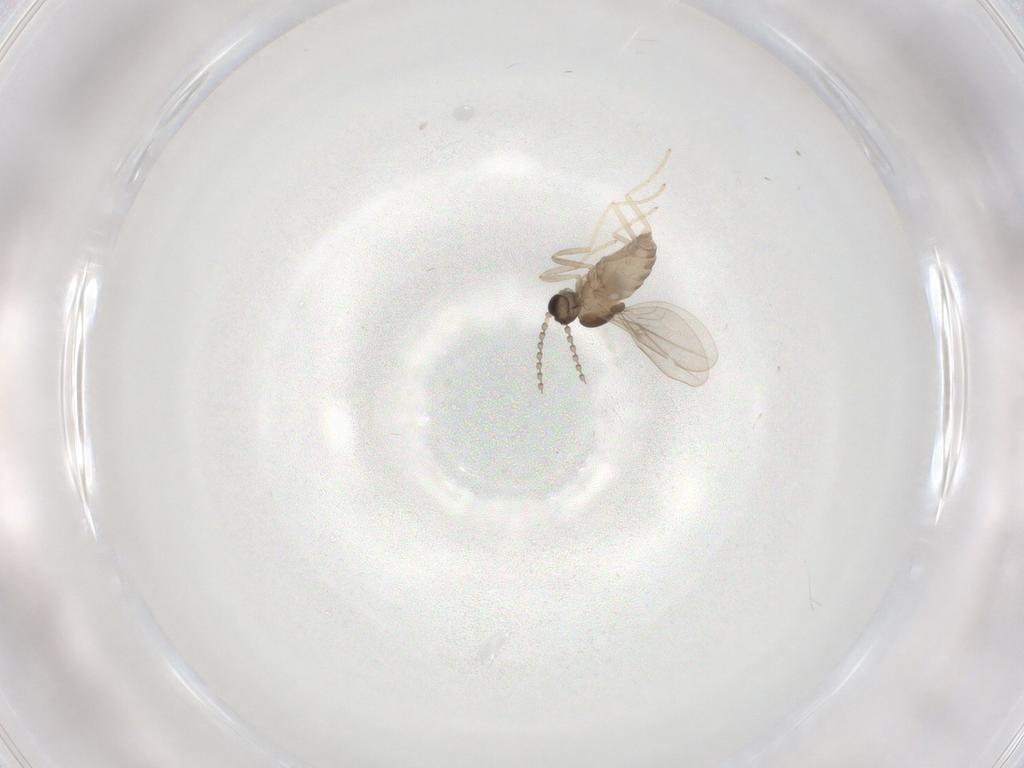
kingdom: Animalia
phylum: Arthropoda
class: Insecta
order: Diptera
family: Cecidomyiidae
